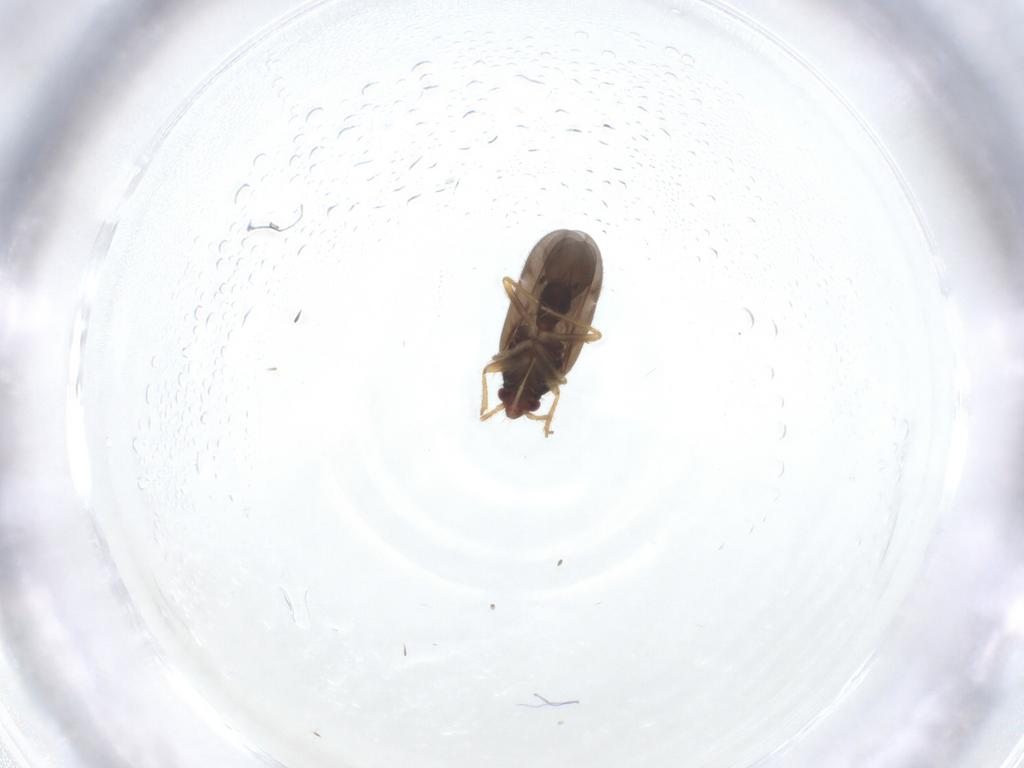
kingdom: Animalia
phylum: Arthropoda
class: Insecta
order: Hemiptera
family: Ceratocombidae
